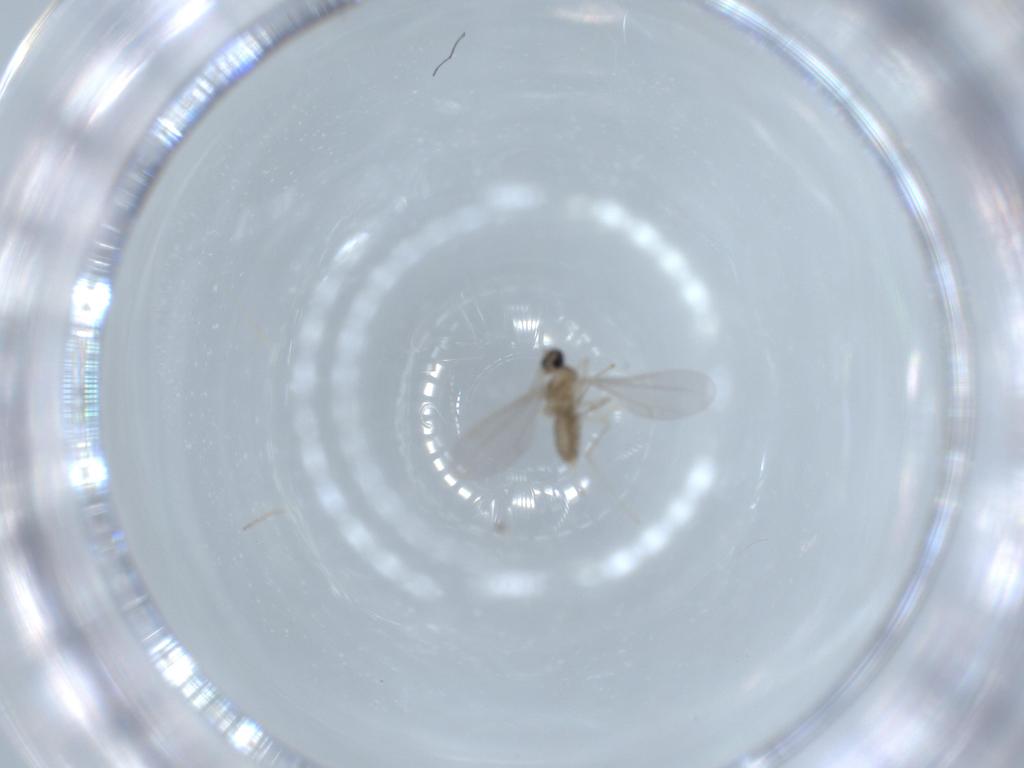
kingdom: Animalia
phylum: Arthropoda
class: Insecta
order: Diptera
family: Cecidomyiidae
